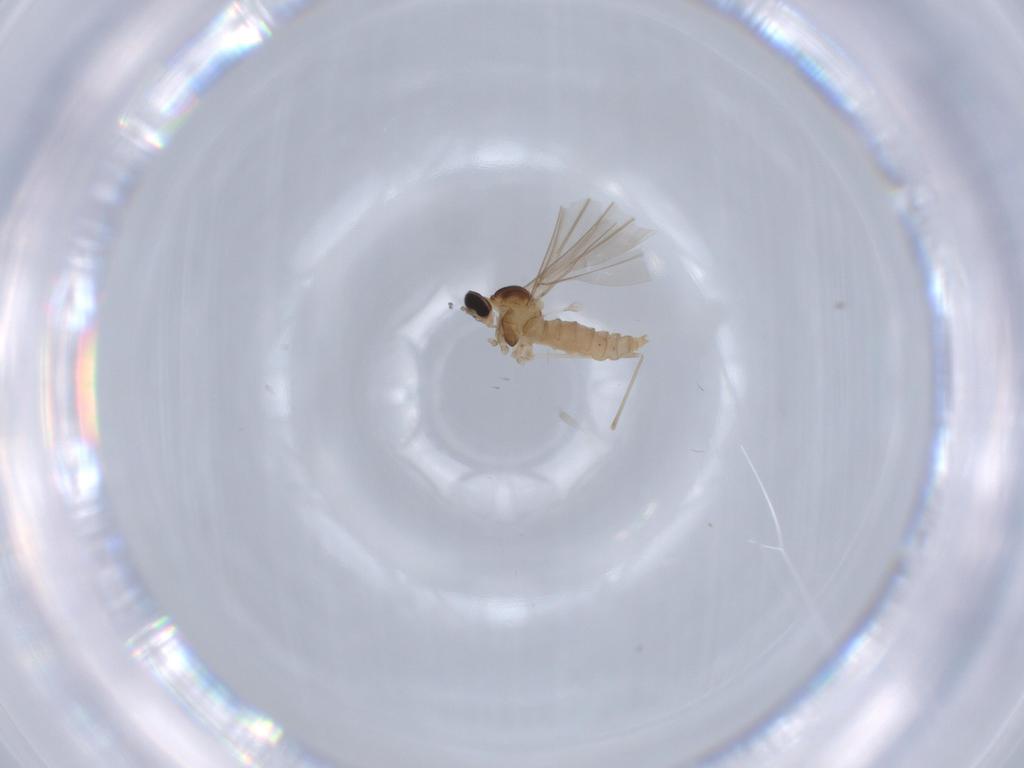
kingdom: Animalia
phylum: Arthropoda
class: Insecta
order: Diptera
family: Cecidomyiidae
